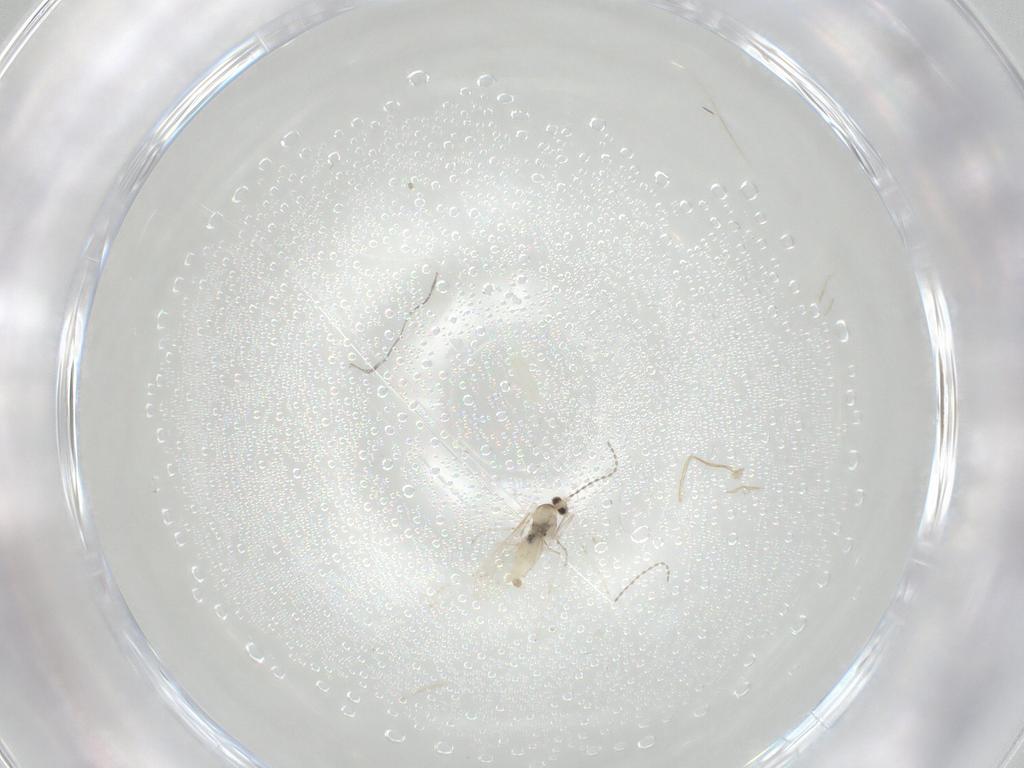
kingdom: Animalia
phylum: Arthropoda
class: Insecta
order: Diptera
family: Cecidomyiidae
